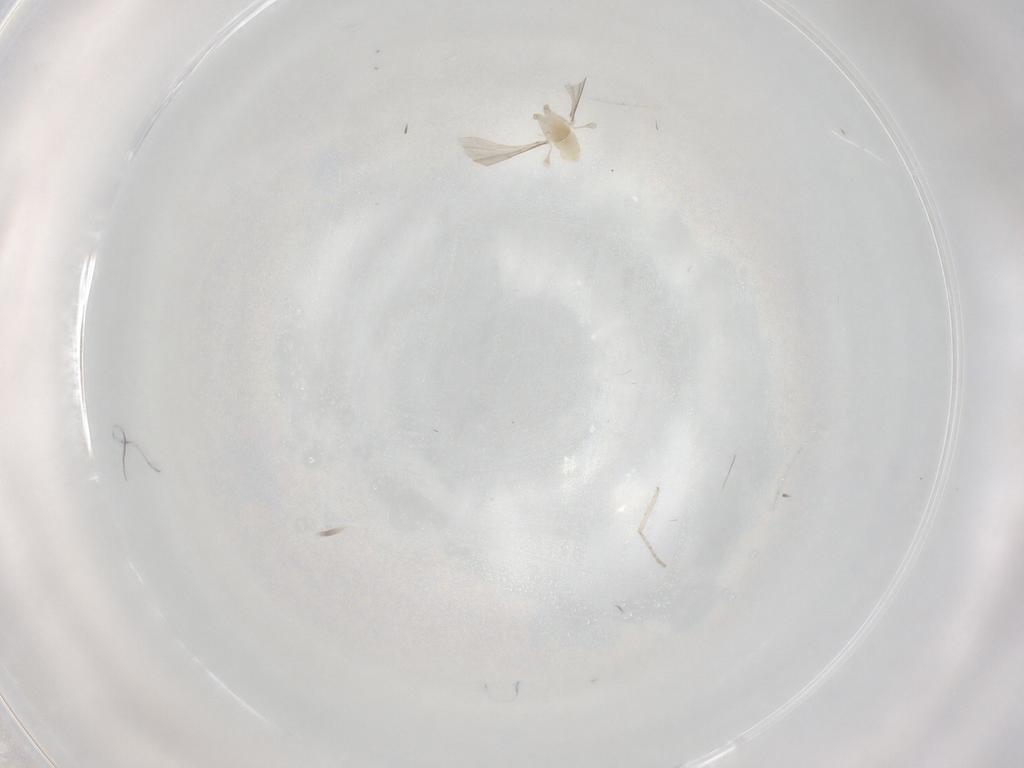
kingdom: Animalia
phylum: Arthropoda
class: Insecta
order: Diptera
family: Cecidomyiidae
